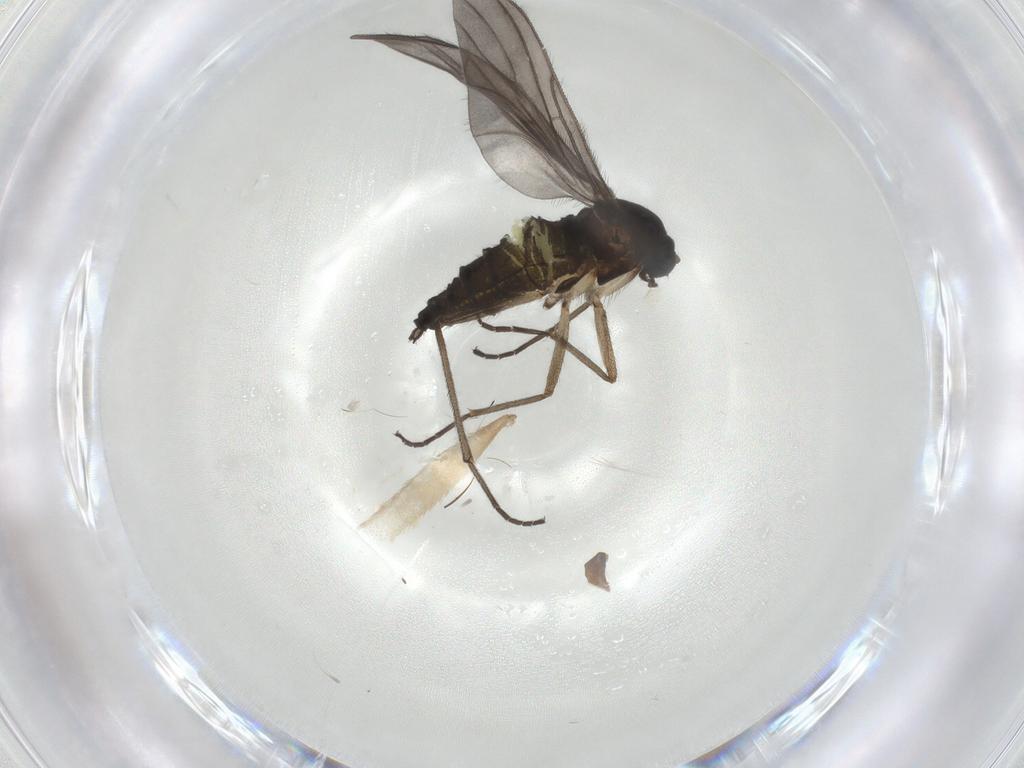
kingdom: Animalia
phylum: Arthropoda
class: Insecta
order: Diptera
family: Sciaridae
